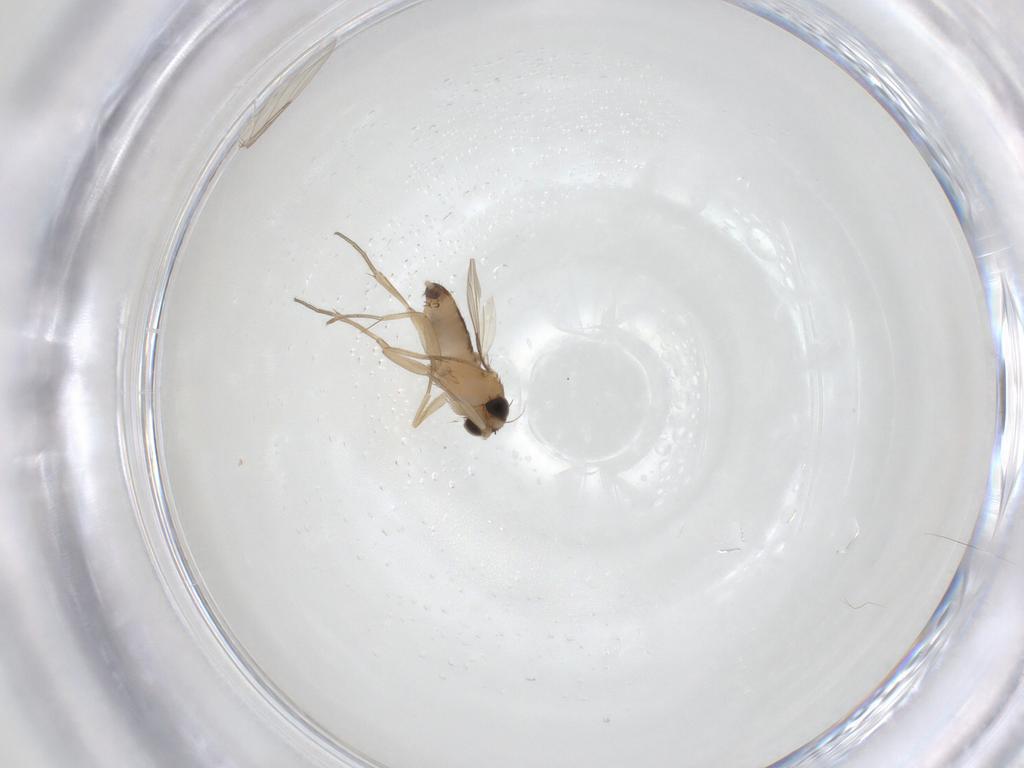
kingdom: Animalia
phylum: Arthropoda
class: Insecta
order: Diptera
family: Phoridae
